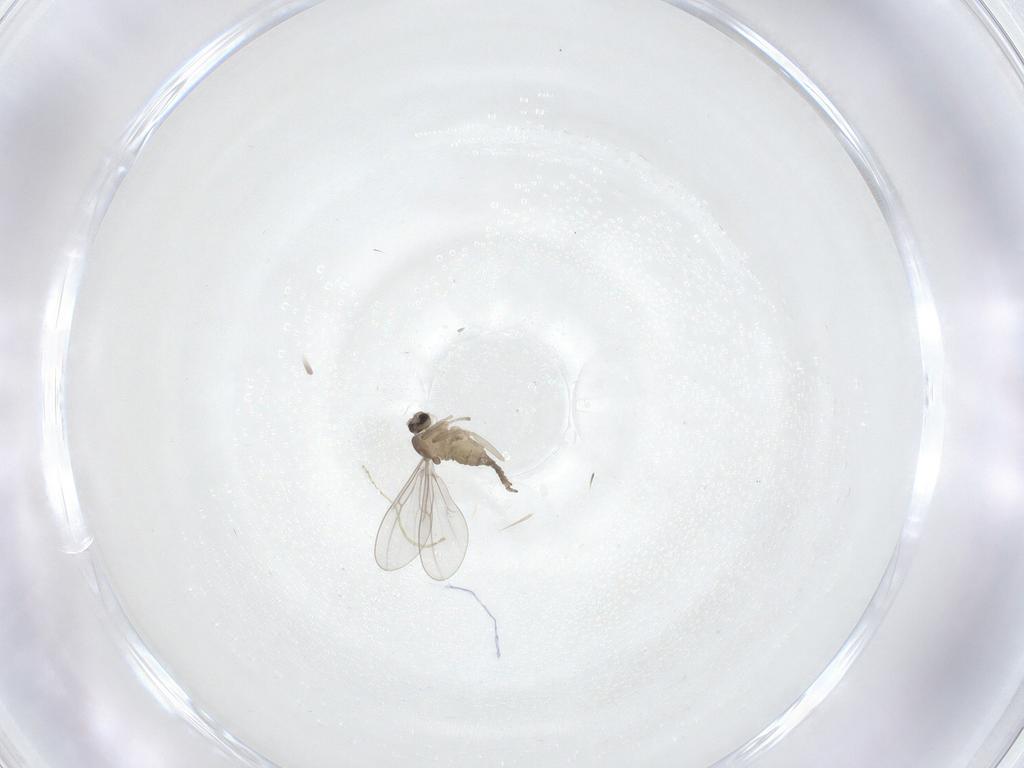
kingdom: Animalia
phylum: Arthropoda
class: Insecta
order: Diptera
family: Cecidomyiidae
